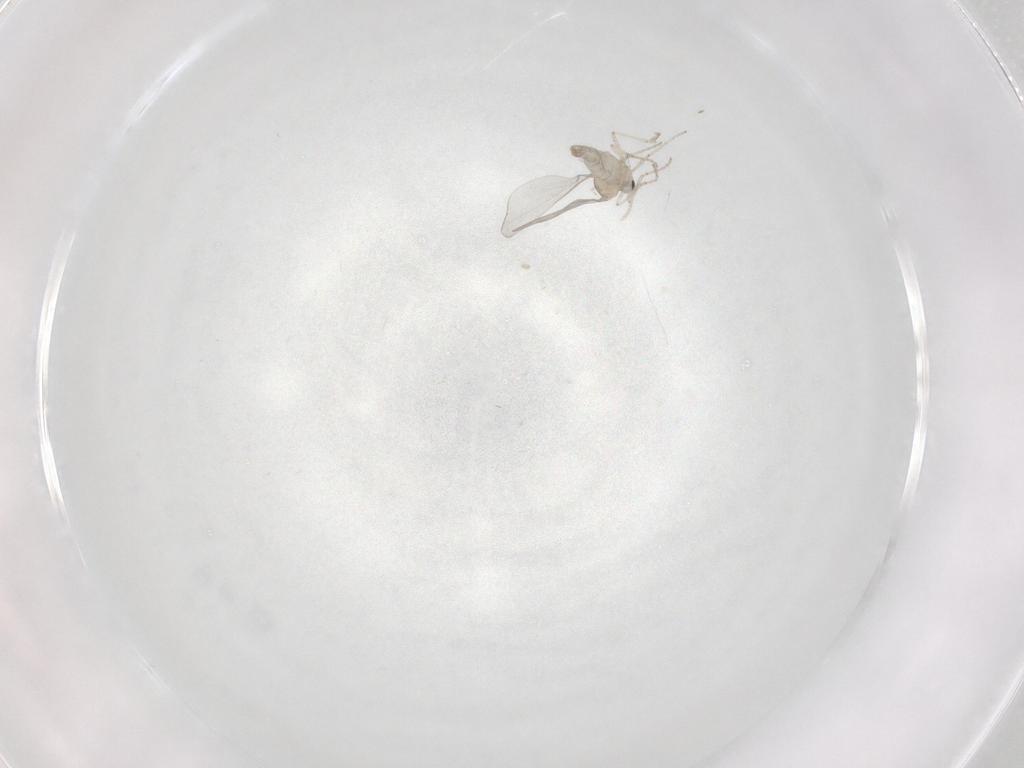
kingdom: Animalia
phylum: Arthropoda
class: Insecta
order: Diptera
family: Cecidomyiidae
